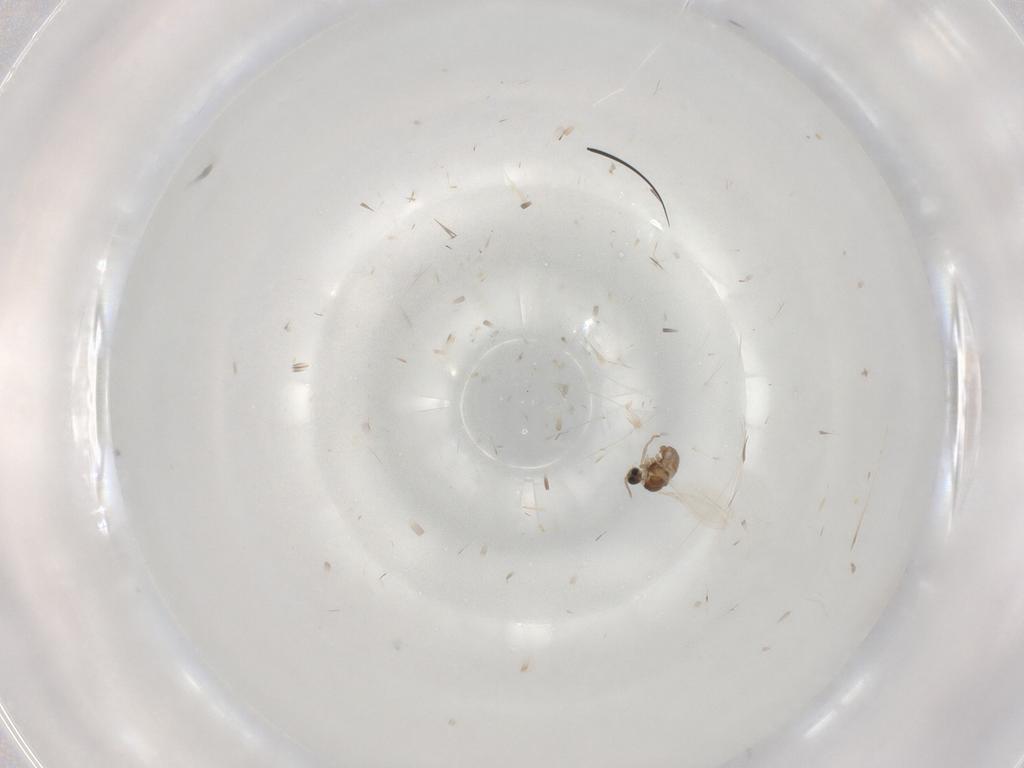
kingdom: Animalia
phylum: Arthropoda
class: Insecta
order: Diptera
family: Cecidomyiidae
